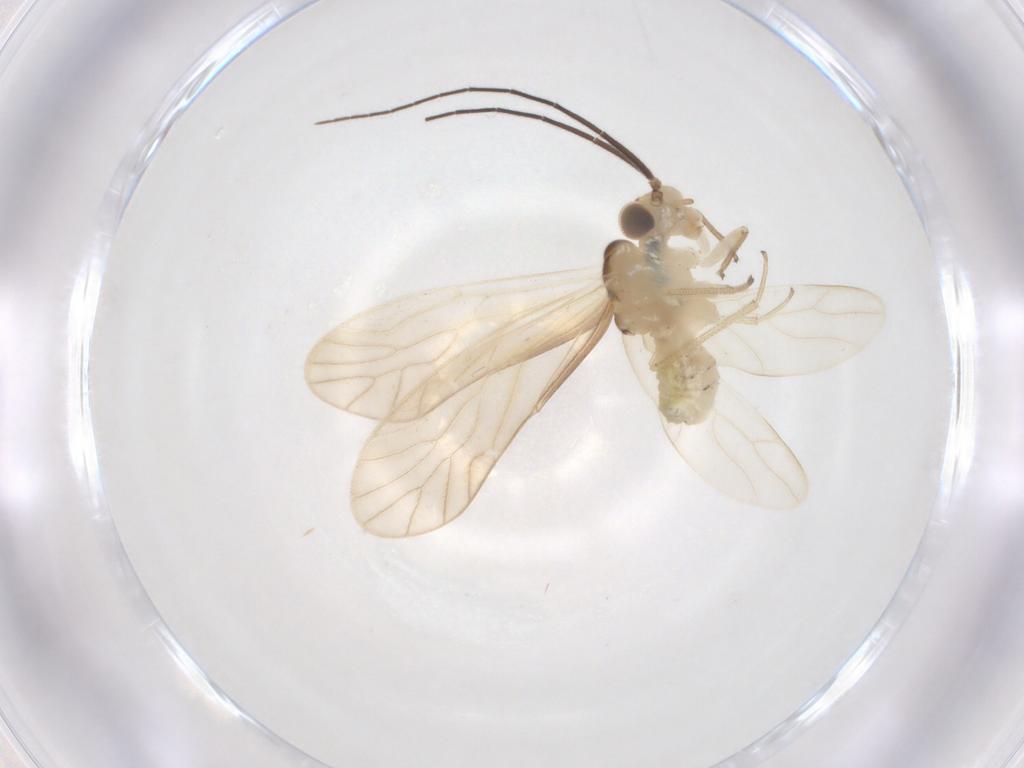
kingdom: Animalia
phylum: Arthropoda
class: Insecta
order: Psocodea
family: Caeciliusidae
